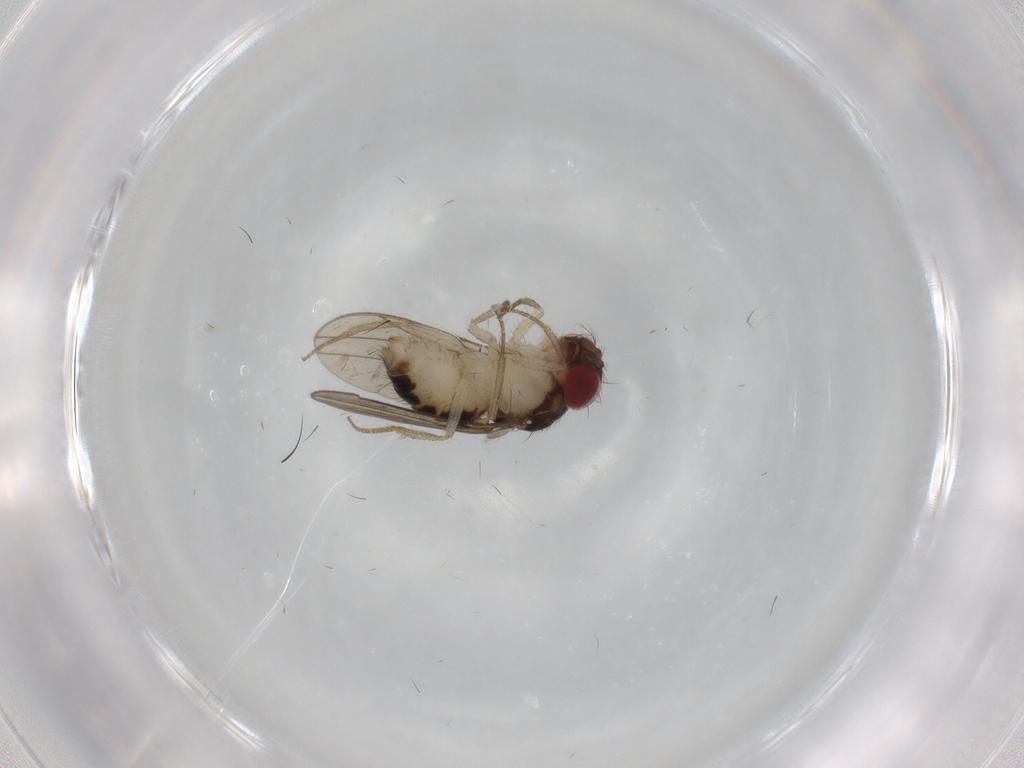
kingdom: Animalia
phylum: Arthropoda
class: Insecta
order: Diptera
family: Drosophilidae
